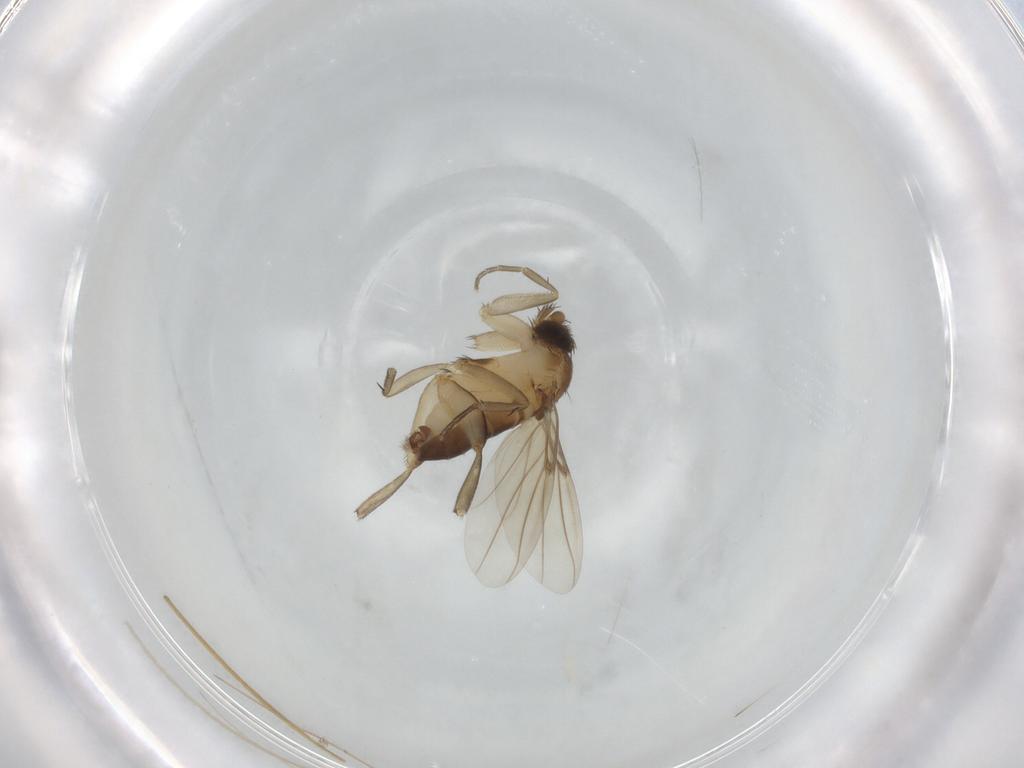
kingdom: Animalia
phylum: Arthropoda
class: Insecta
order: Diptera
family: Phoridae
